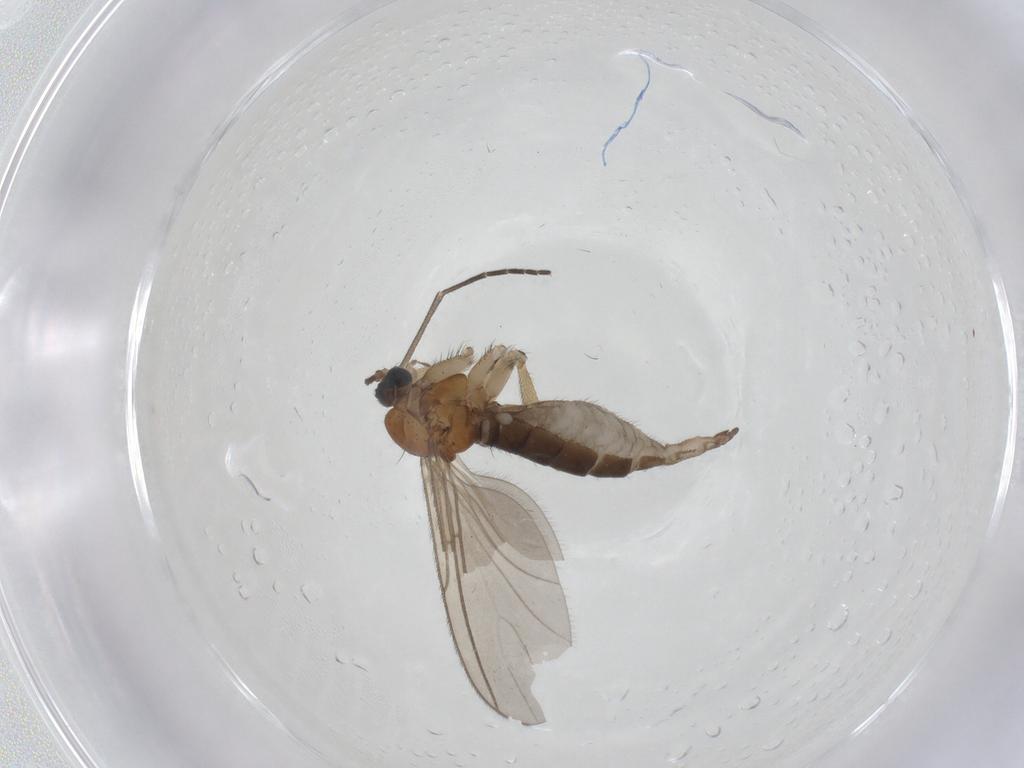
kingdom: Animalia
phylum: Arthropoda
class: Insecta
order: Diptera
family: Sciaridae
